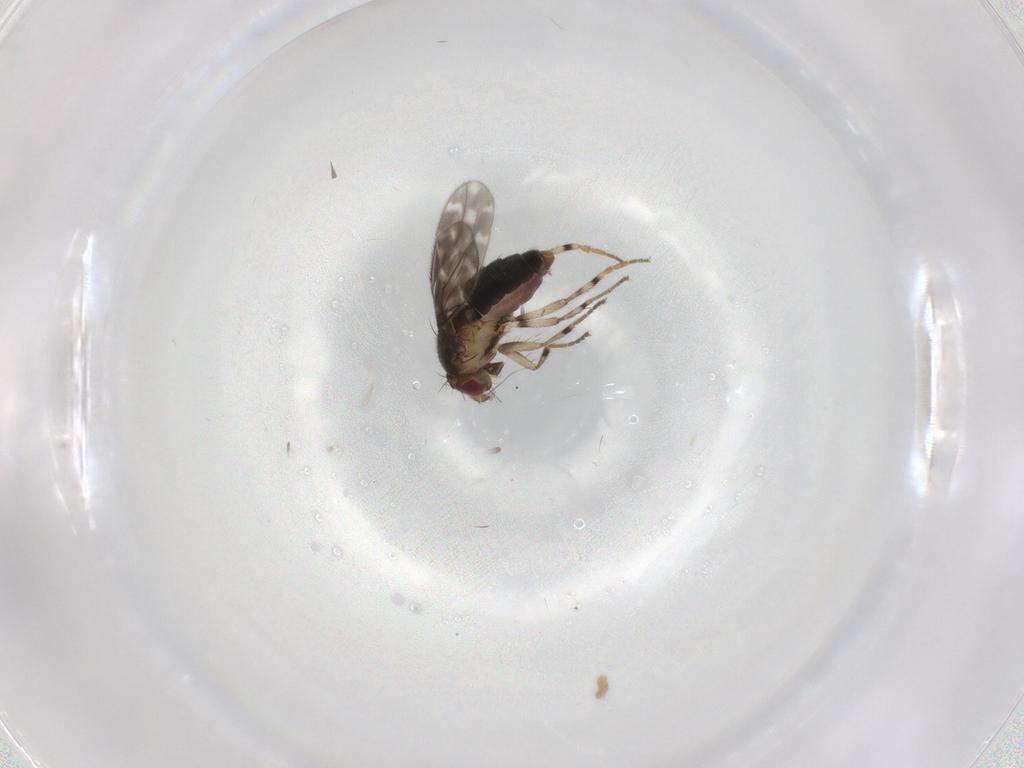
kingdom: Animalia
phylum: Arthropoda
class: Insecta
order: Diptera
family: Sphaeroceridae
